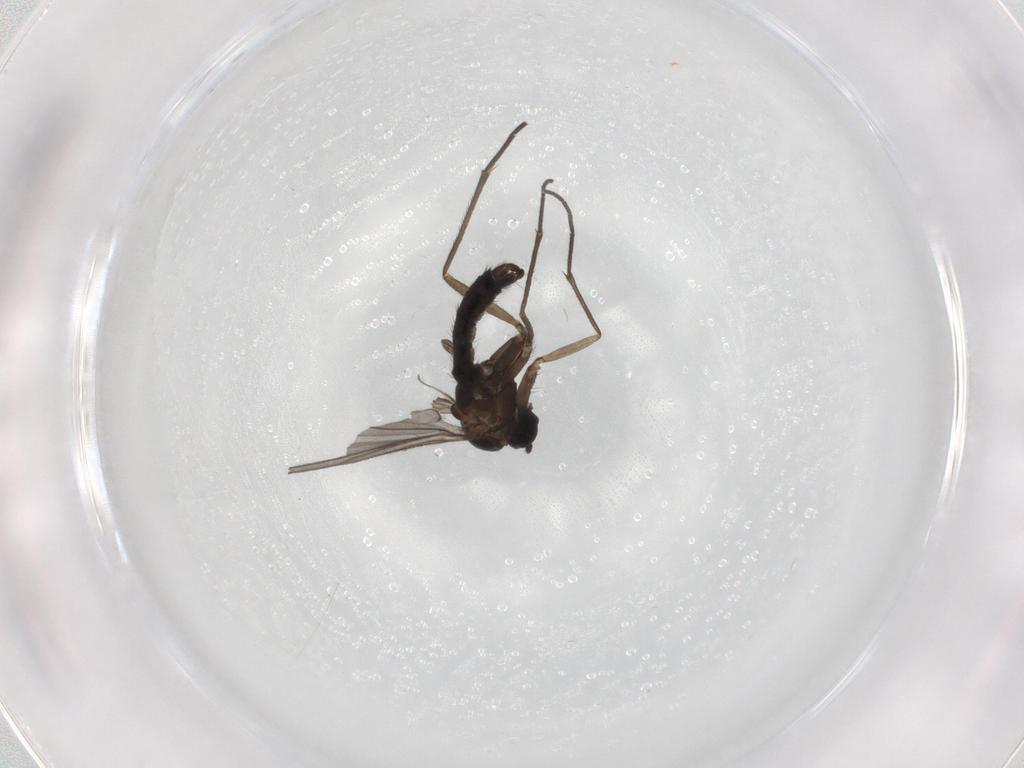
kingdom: Animalia
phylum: Arthropoda
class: Insecta
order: Diptera
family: Sciaridae
